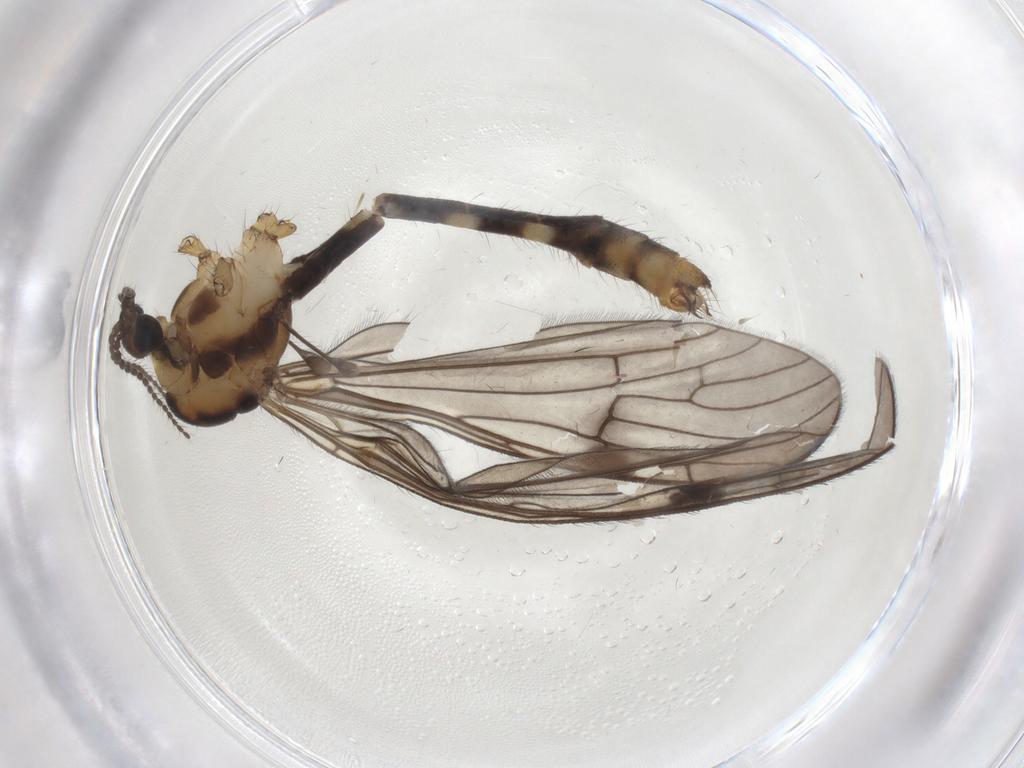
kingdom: Animalia
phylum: Arthropoda
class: Insecta
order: Diptera
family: Limoniidae
